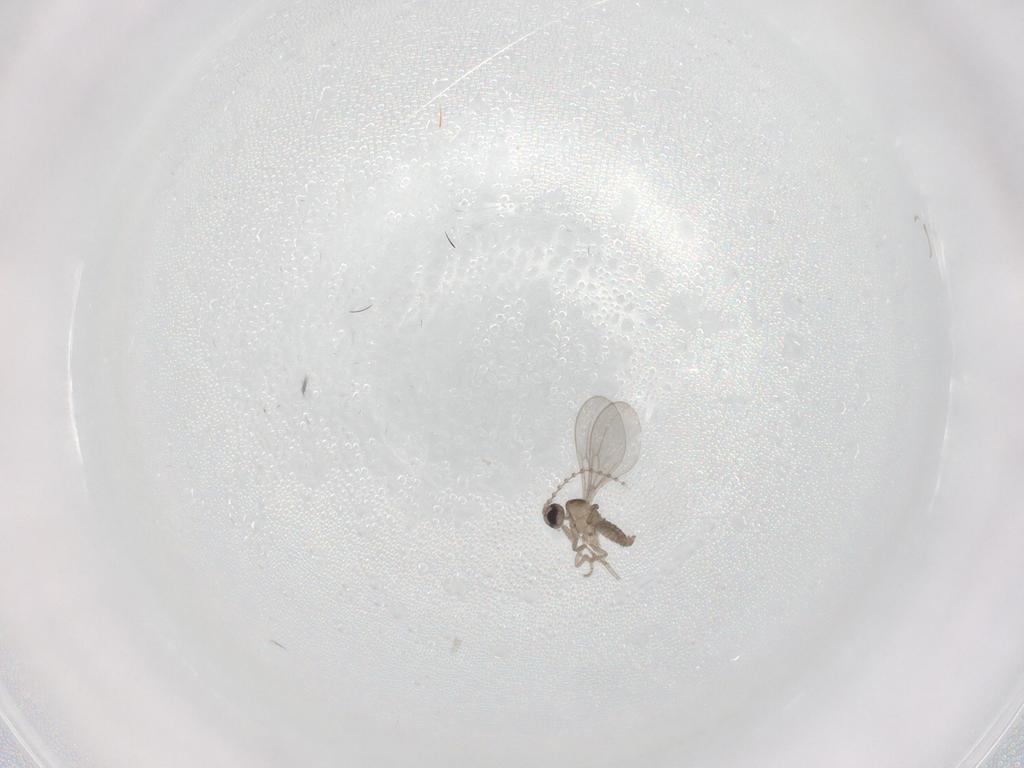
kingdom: Animalia
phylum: Arthropoda
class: Insecta
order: Diptera
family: Cecidomyiidae
